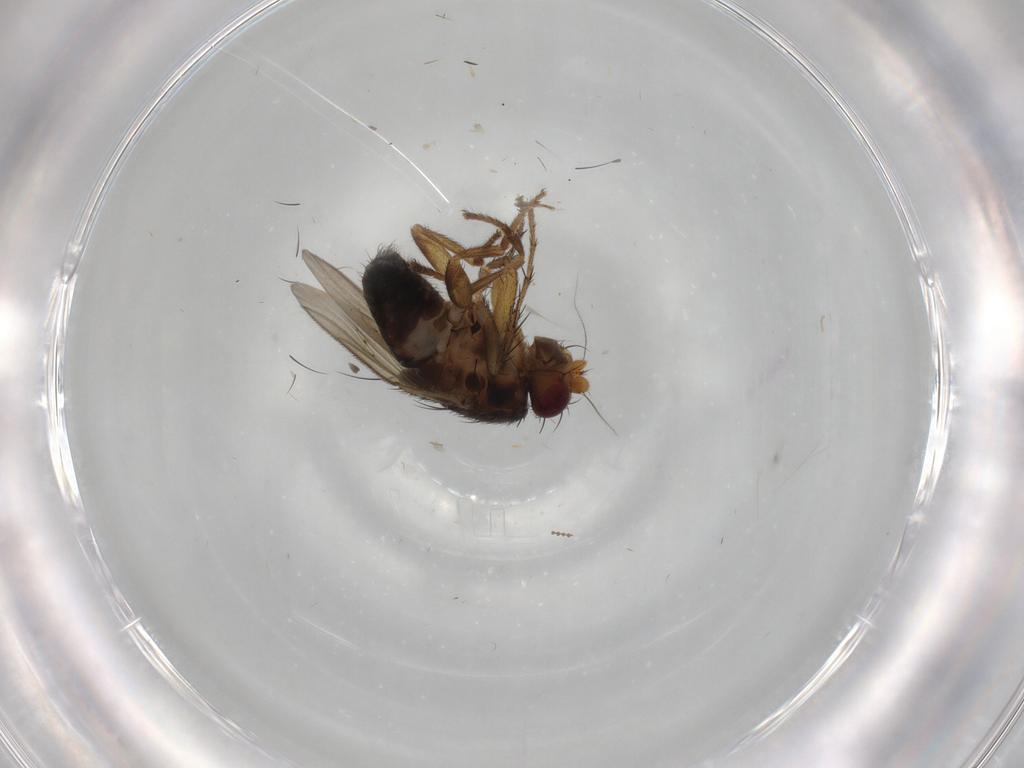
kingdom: Animalia
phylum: Arthropoda
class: Insecta
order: Diptera
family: Sphaeroceridae
